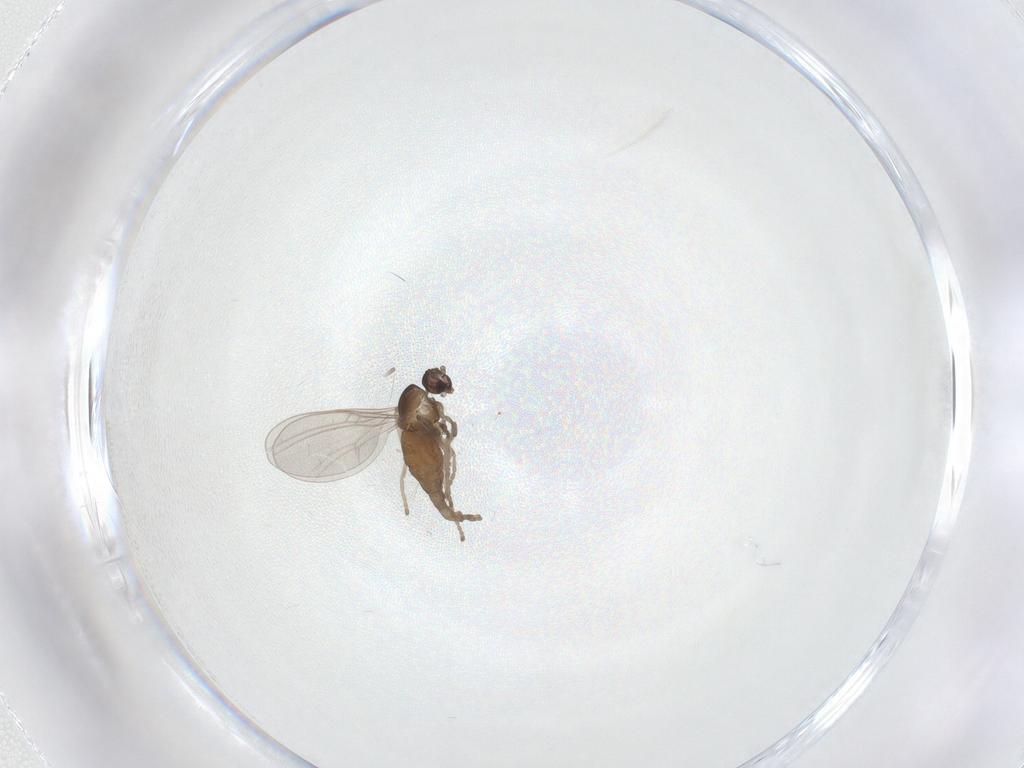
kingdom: Animalia
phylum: Arthropoda
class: Insecta
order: Diptera
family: Cecidomyiidae
